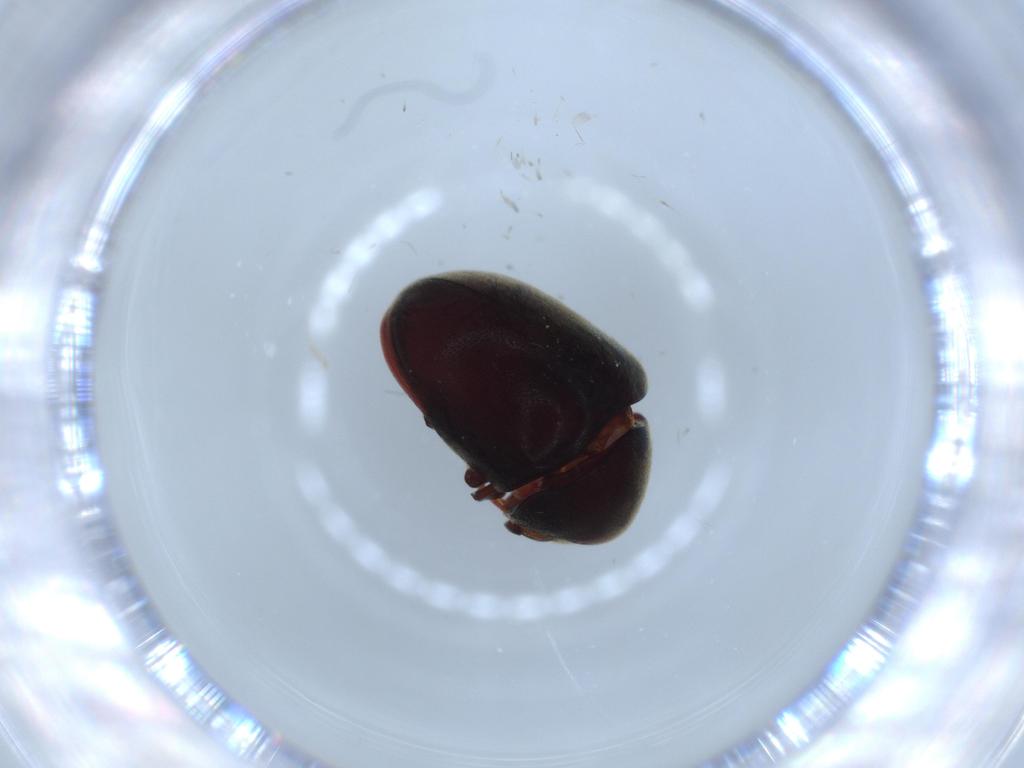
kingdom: Animalia
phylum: Arthropoda
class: Insecta
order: Coleoptera
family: Ptinidae
